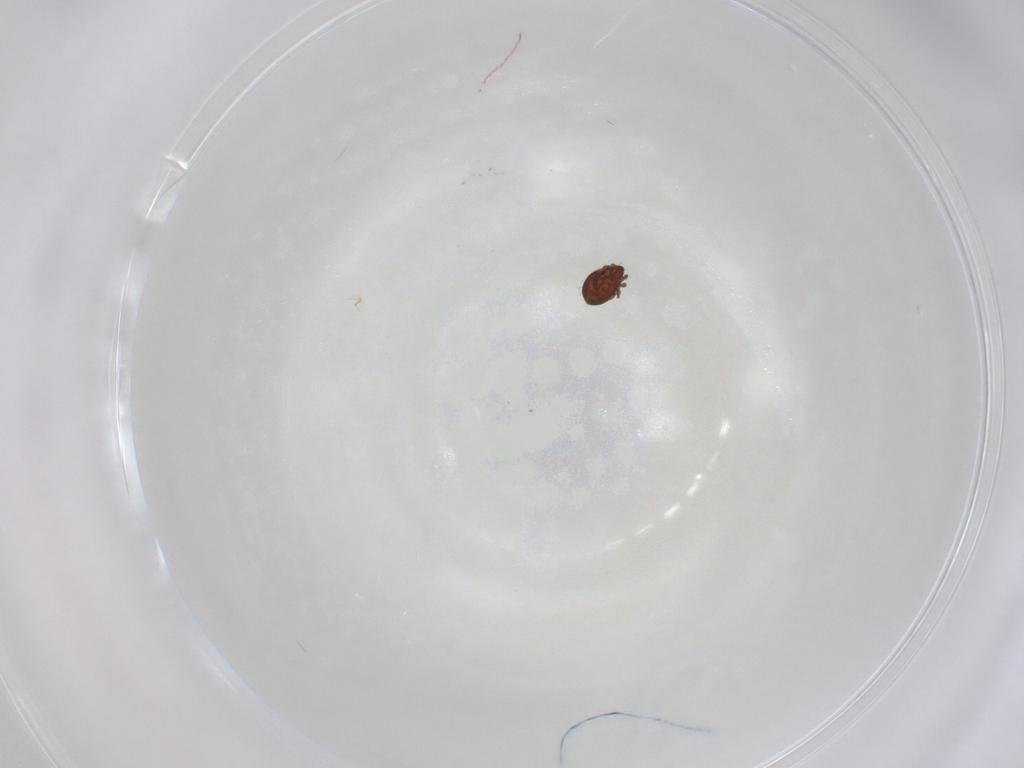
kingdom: Animalia
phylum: Arthropoda
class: Arachnida
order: Sarcoptiformes
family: Scheloribatidae
